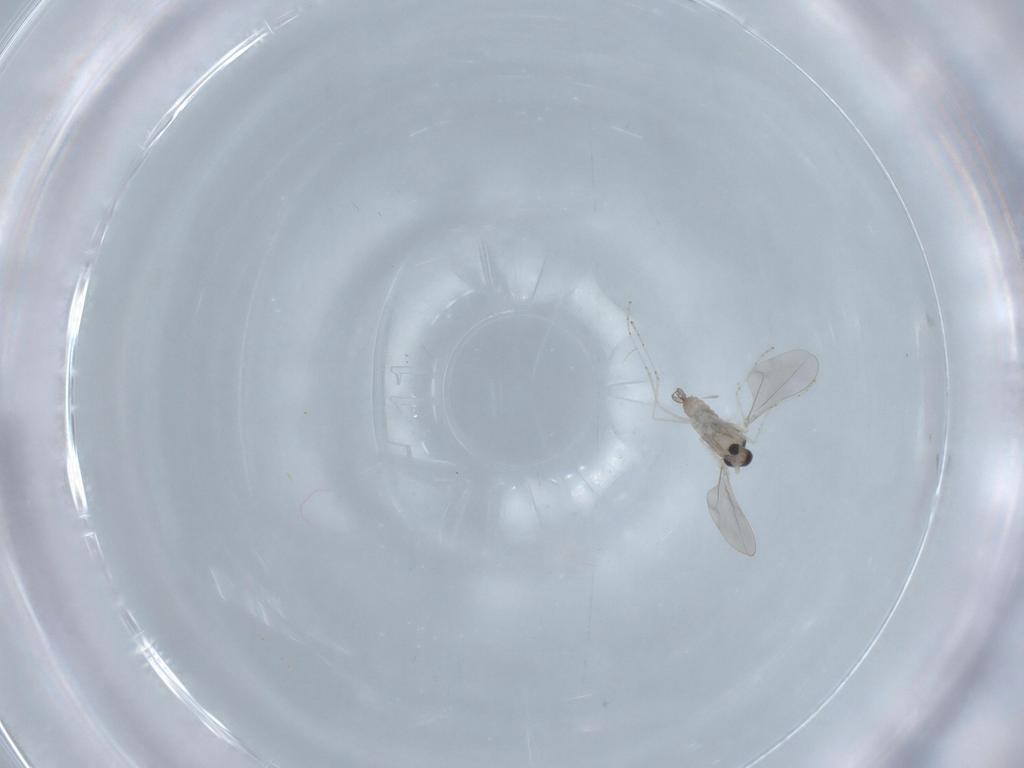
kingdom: Animalia
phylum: Arthropoda
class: Insecta
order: Diptera
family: Cecidomyiidae
